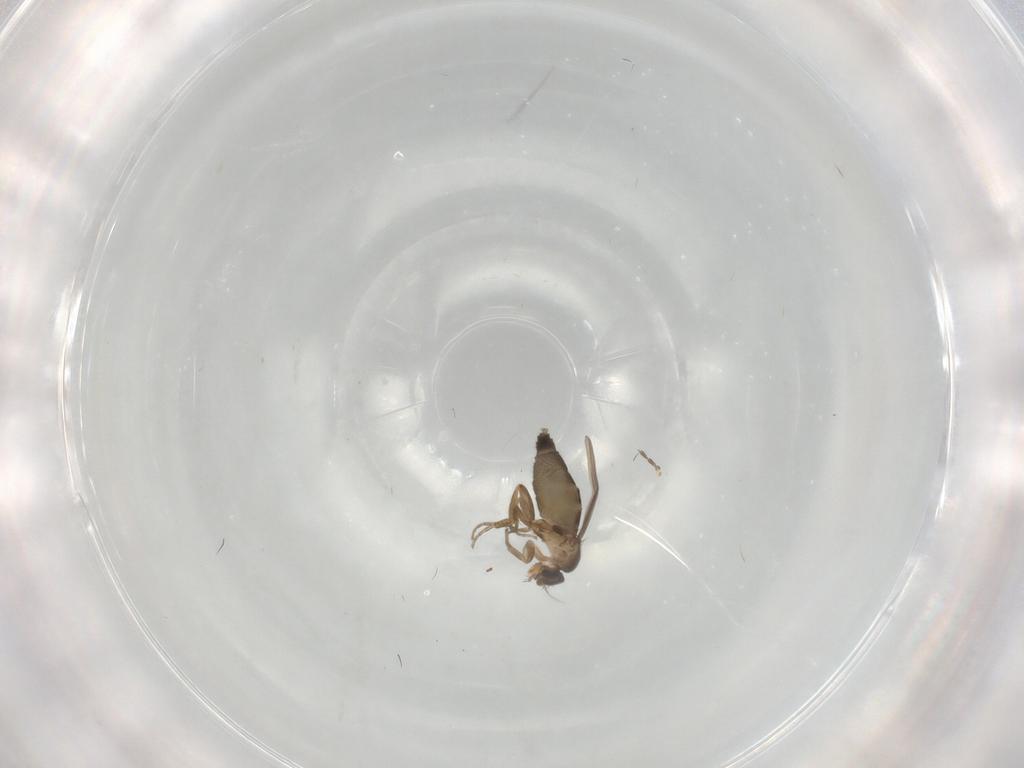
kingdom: Animalia
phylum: Arthropoda
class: Insecta
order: Diptera
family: Phoridae
